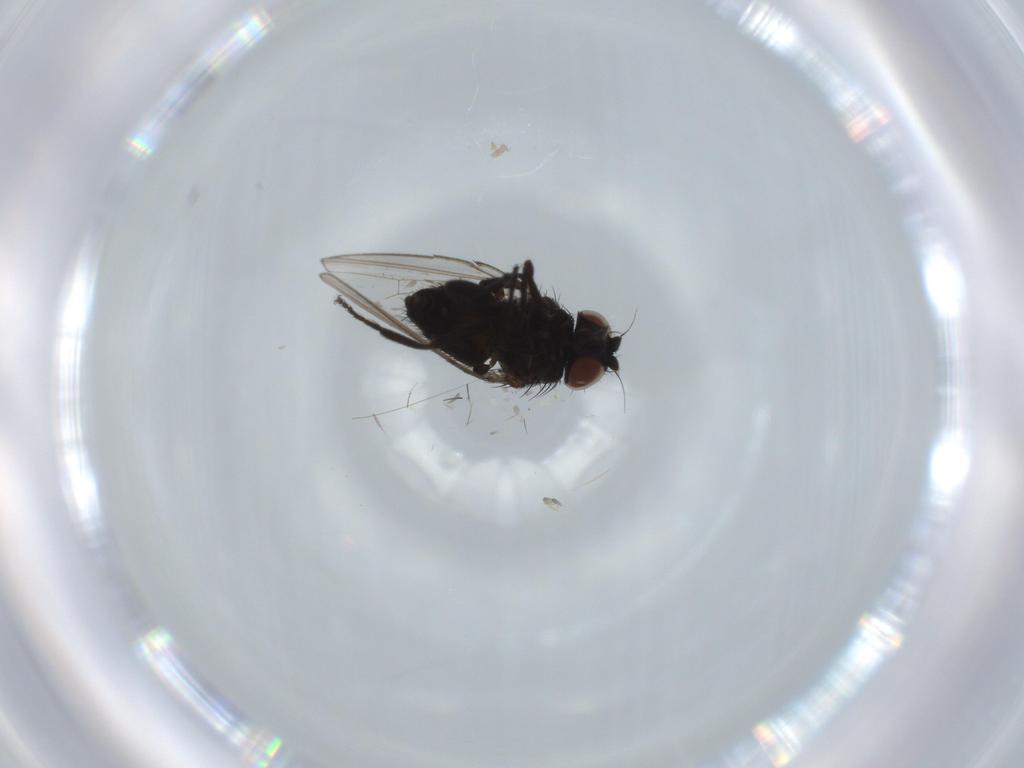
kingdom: Animalia
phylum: Arthropoda
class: Insecta
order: Diptera
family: Milichiidae
